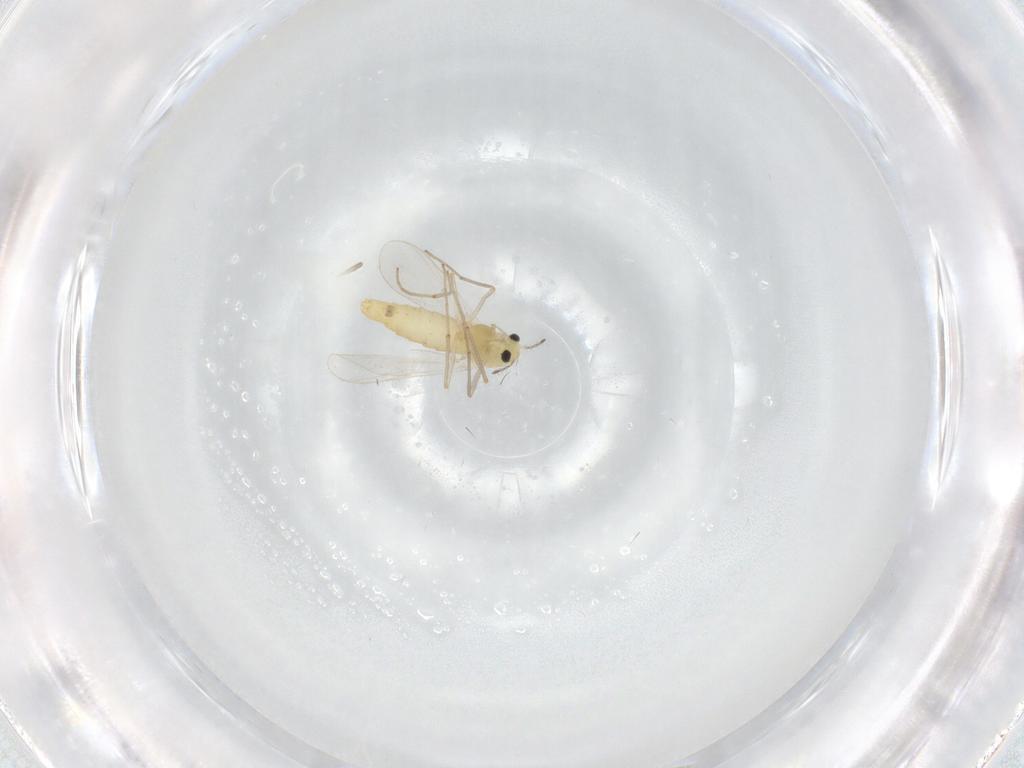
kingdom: Animalia
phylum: Arthropoda
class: Insecta
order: Diptera
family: Chironomidae
